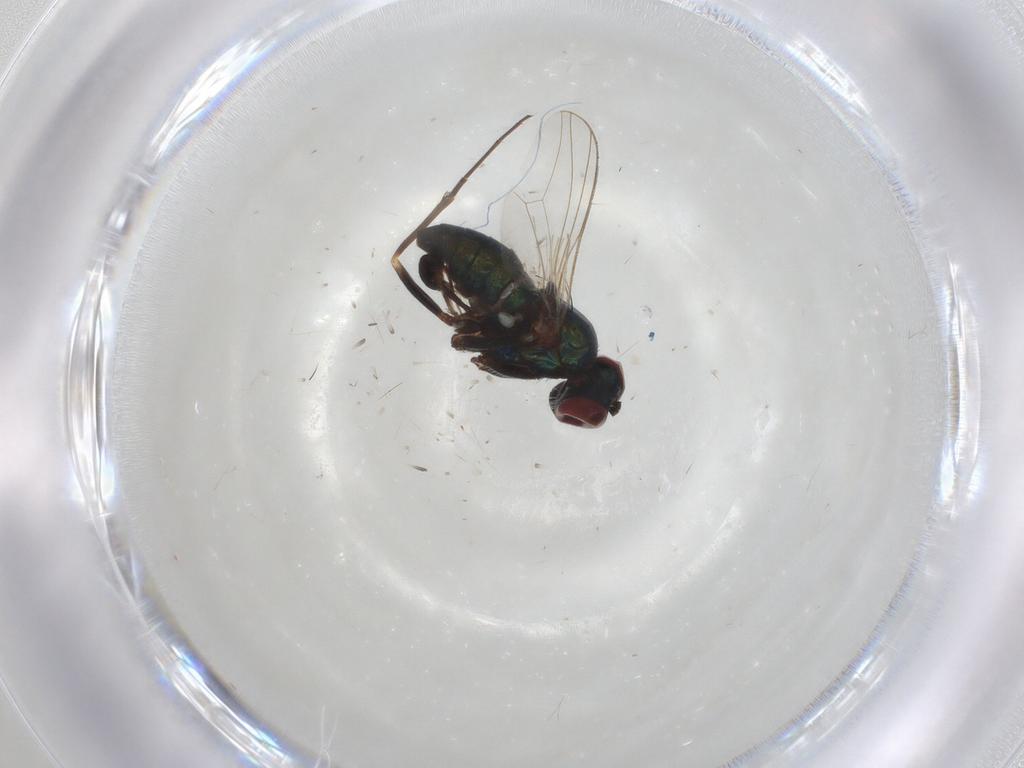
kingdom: Animalia
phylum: Arthropoda
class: Insecta
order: Diptera
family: Dolichopodidae
